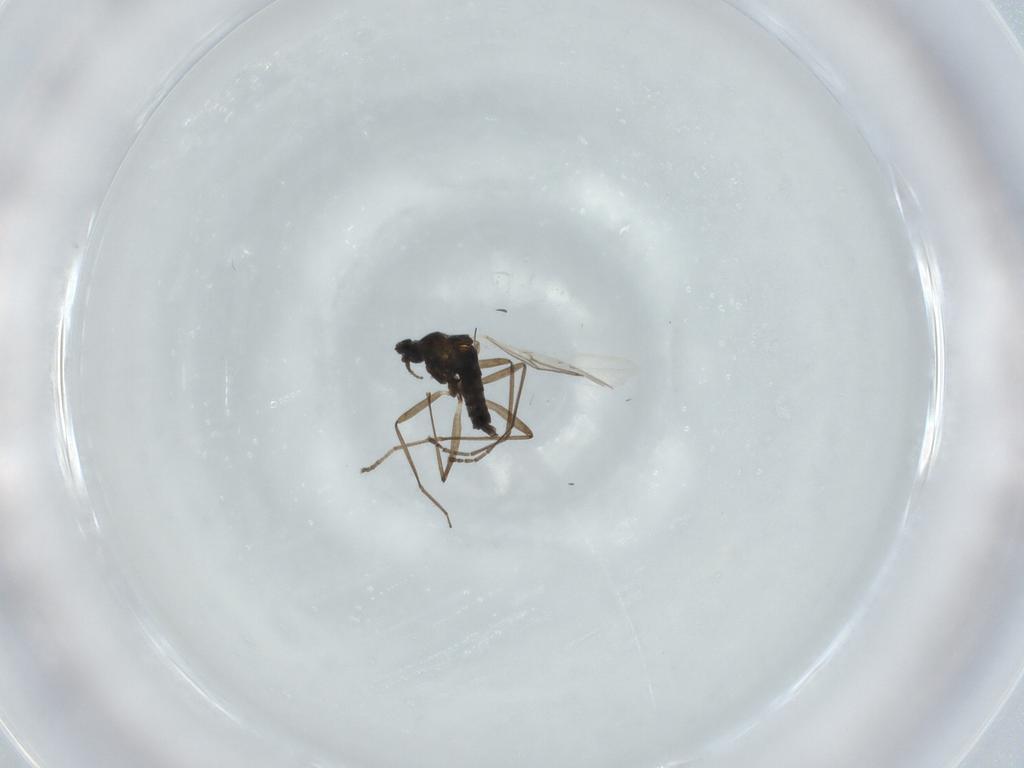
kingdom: Animalia
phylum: Arthropoda
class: Insecta
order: Diptera
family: Cecidomyiidae
